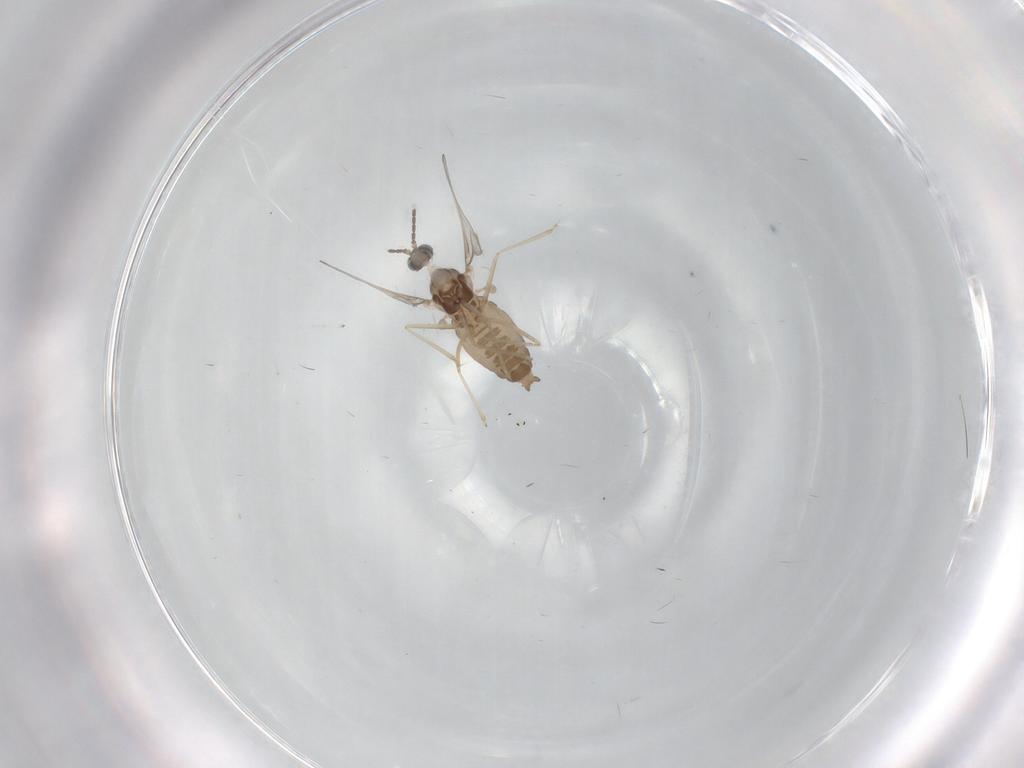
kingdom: Animalia
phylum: Arthropoda
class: Insecta
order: Diptera
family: Cecidomyiidae
